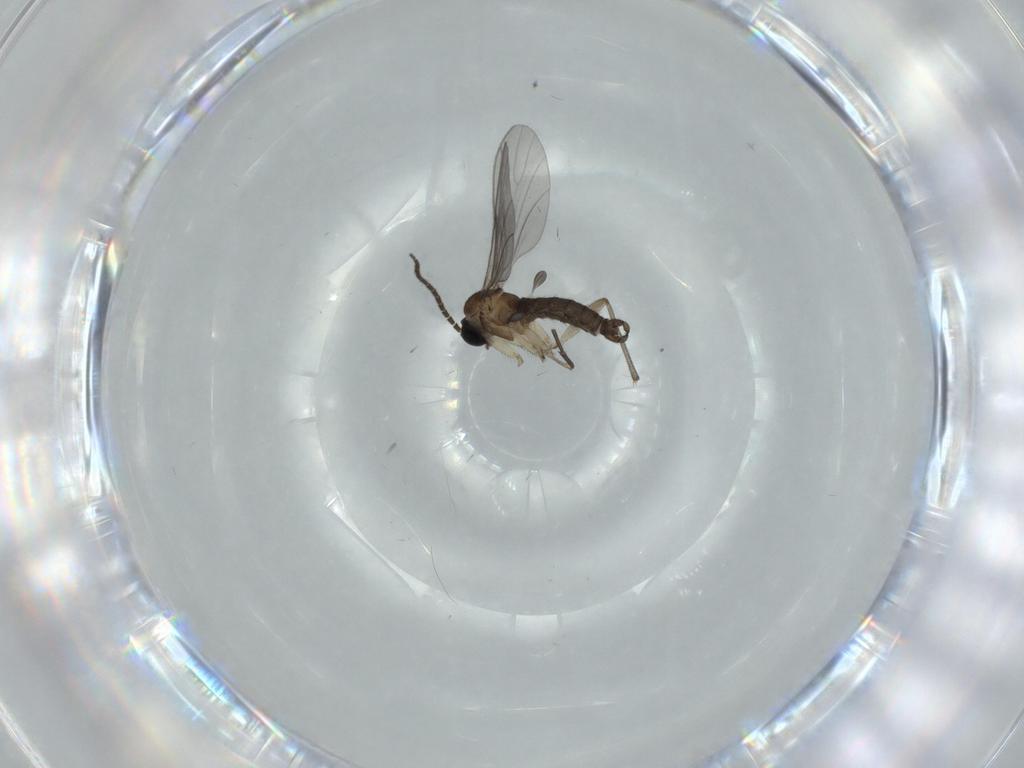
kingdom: Animalia
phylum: Arthropoda
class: Insecta
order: Diptera
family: Sciaridae
